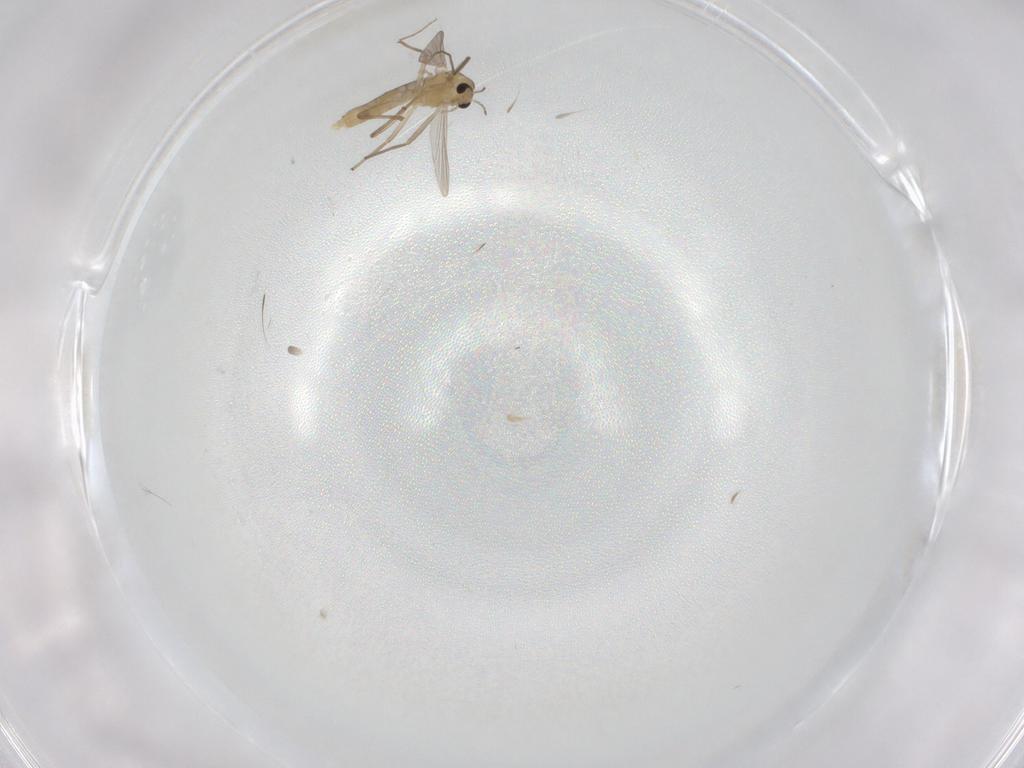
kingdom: Animalia
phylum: Arthropoda
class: Insecta
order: Diptera
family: Chironomidae
